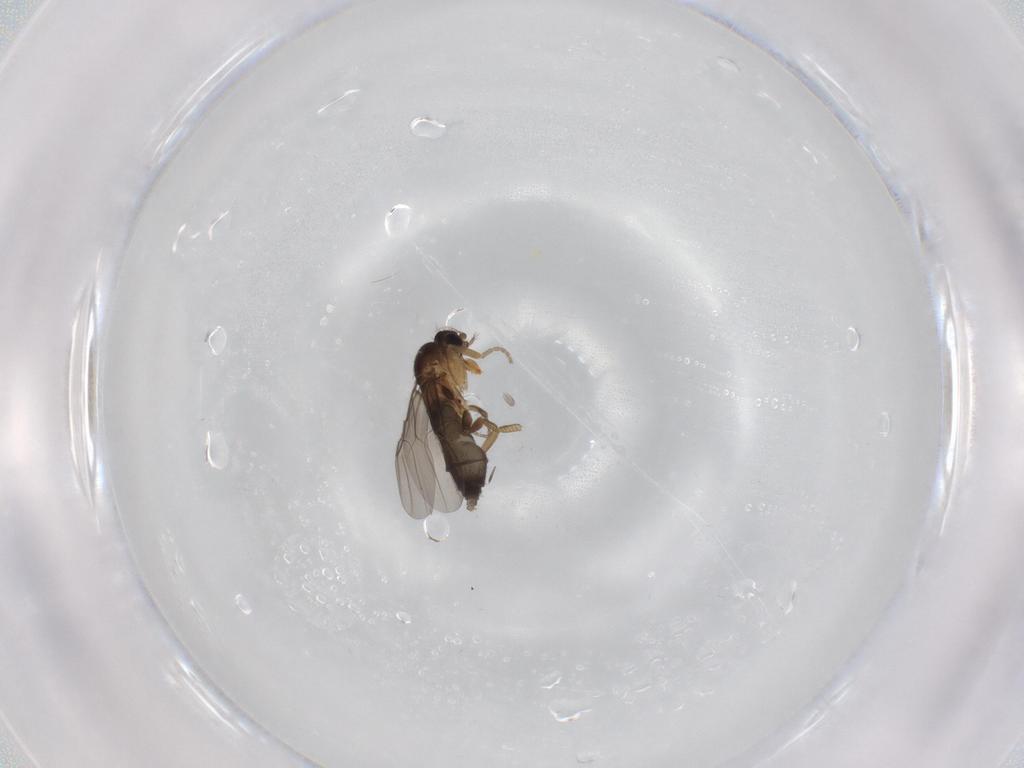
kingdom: Animalia
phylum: Arthropoda
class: Insecta
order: Diptera
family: Phoridae
